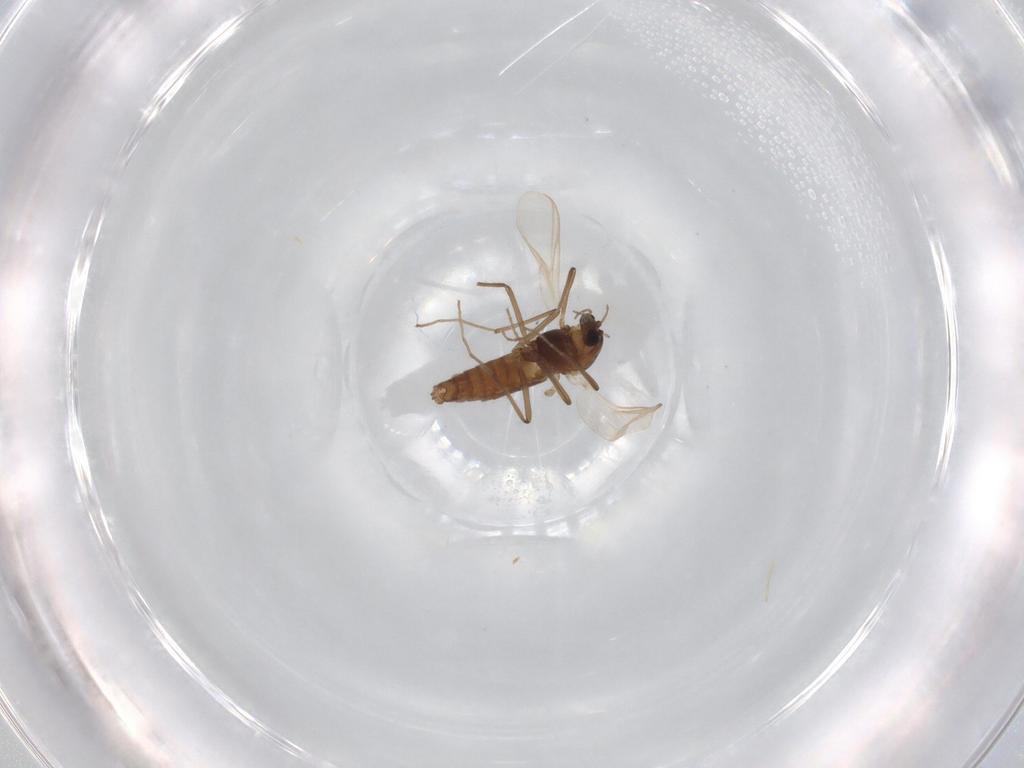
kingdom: Animalia
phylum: Arthropoda
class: Insecta
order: Diptera
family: Chironomidae
